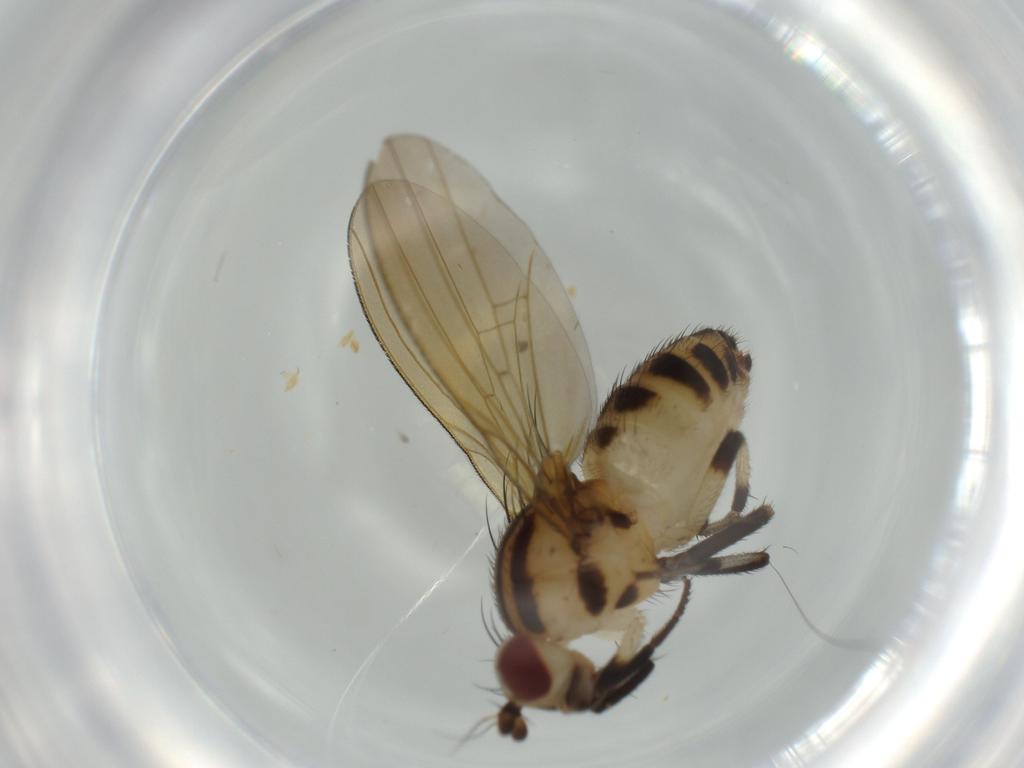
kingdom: Animalia
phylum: Arthropoda
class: Insecta
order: Diptera
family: Lauxaniidae
